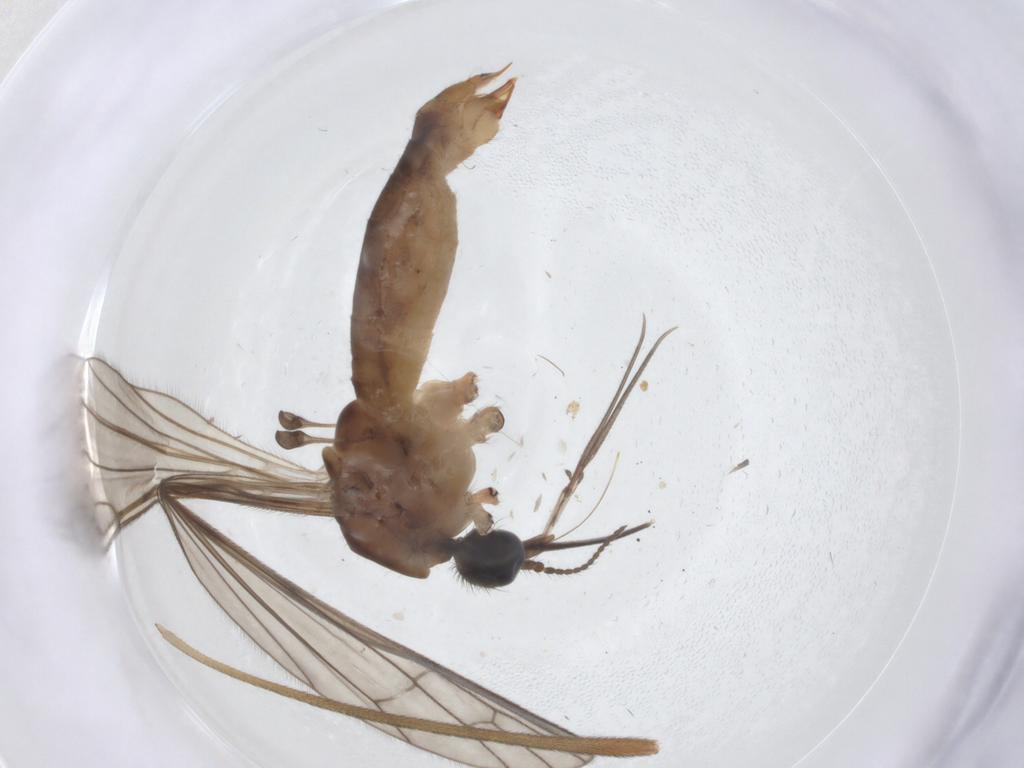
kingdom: Animalia
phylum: Arthropoda
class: Insecta
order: Diptera
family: Limoniidae
